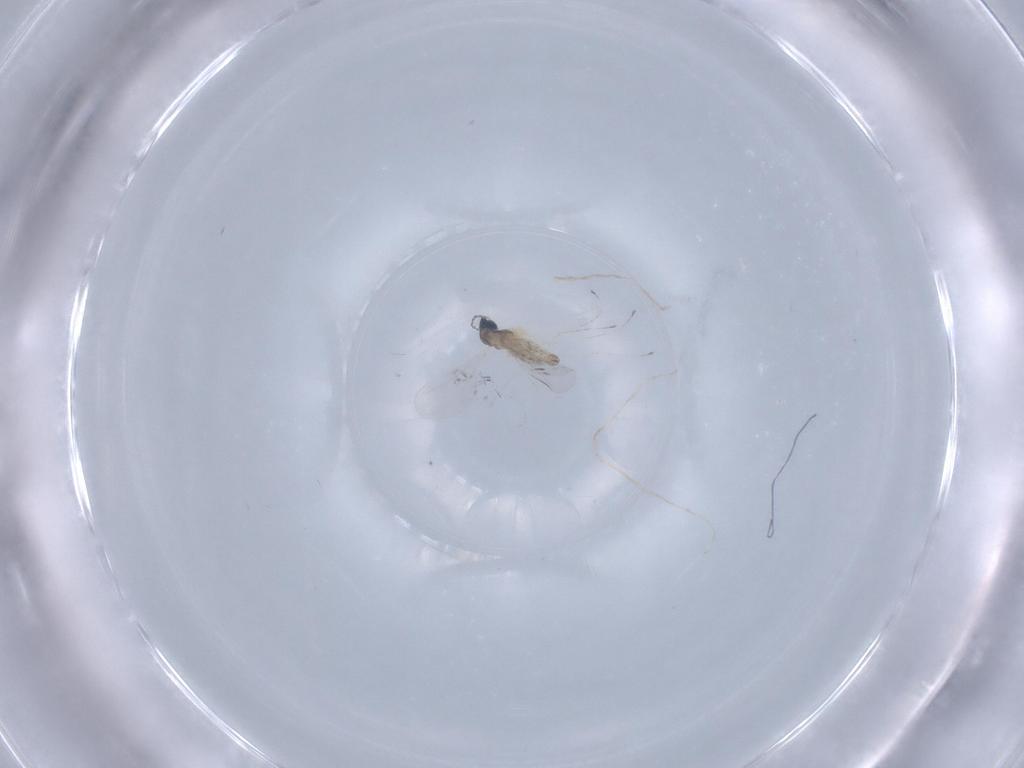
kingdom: Animalia
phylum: Arthropoda
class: Insecta
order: Diptera
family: Cecidomyiidae
